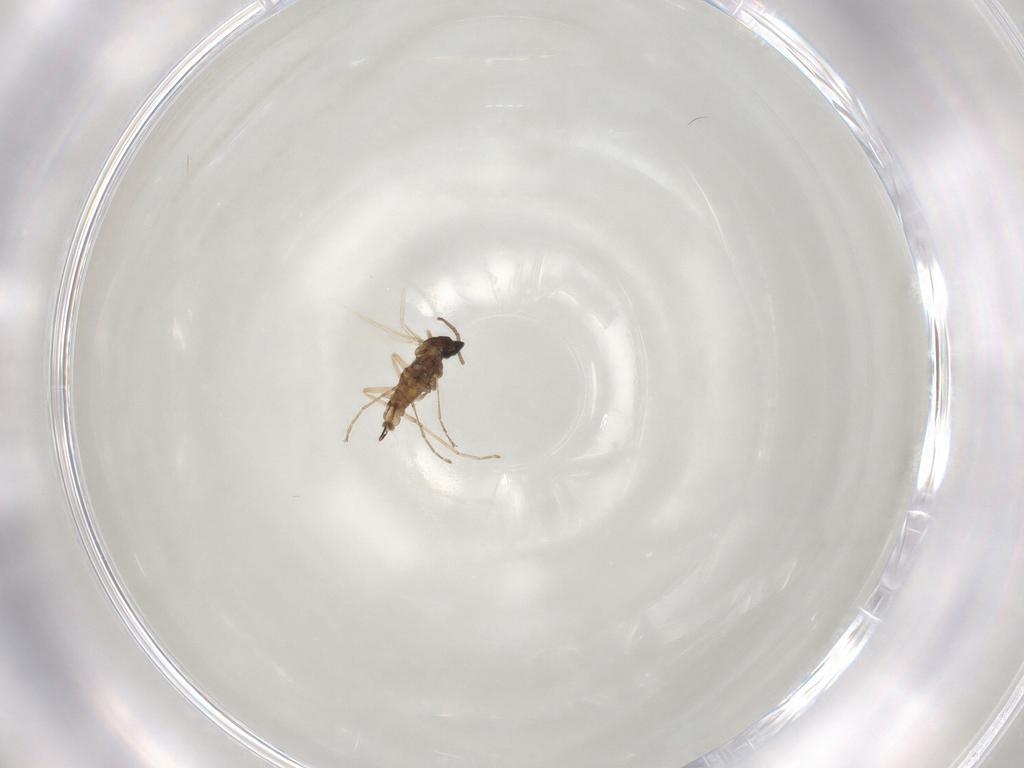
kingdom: Animalia
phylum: Arthropoda
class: Insecta
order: Diptera
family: Cecidomyiidae
